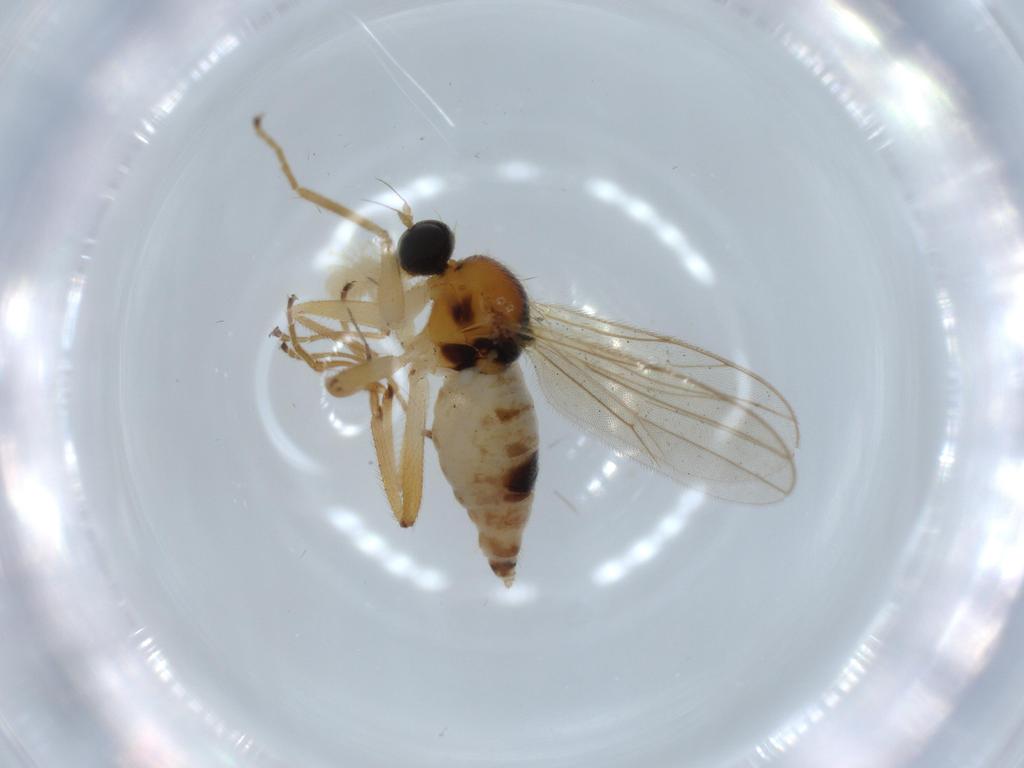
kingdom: Animalia
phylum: Arthropoda
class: Insecta
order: Diptera
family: Hybotidae
